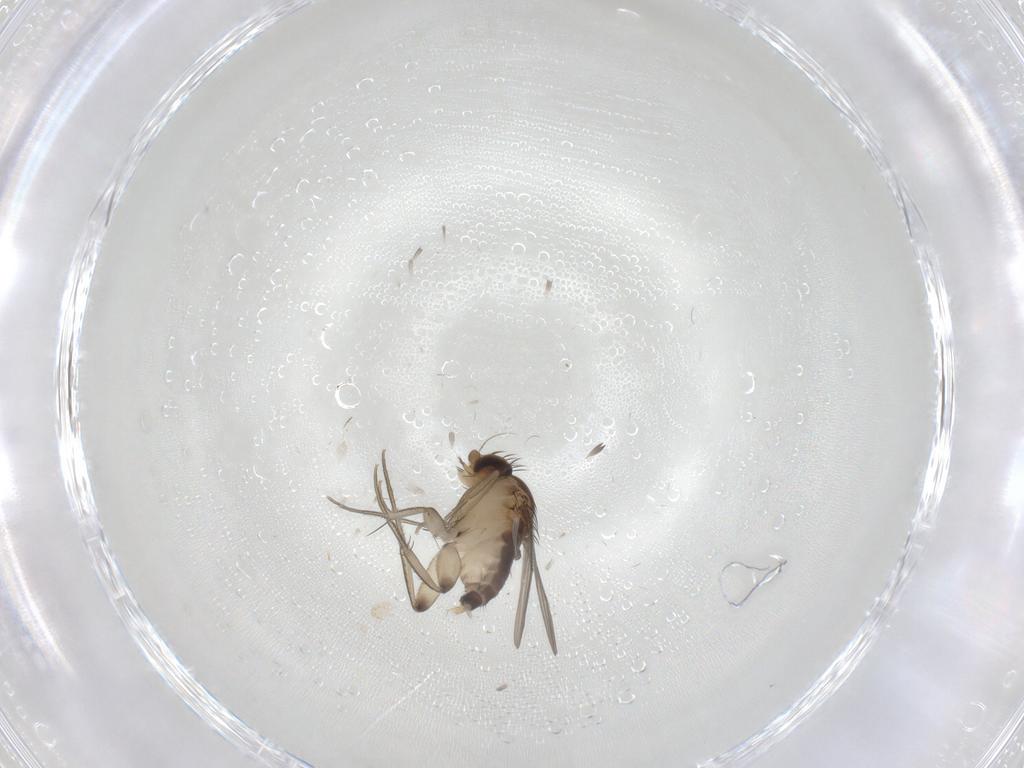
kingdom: Animalia
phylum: Arthropoda
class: Insecta
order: Diptera
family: Phoridae
